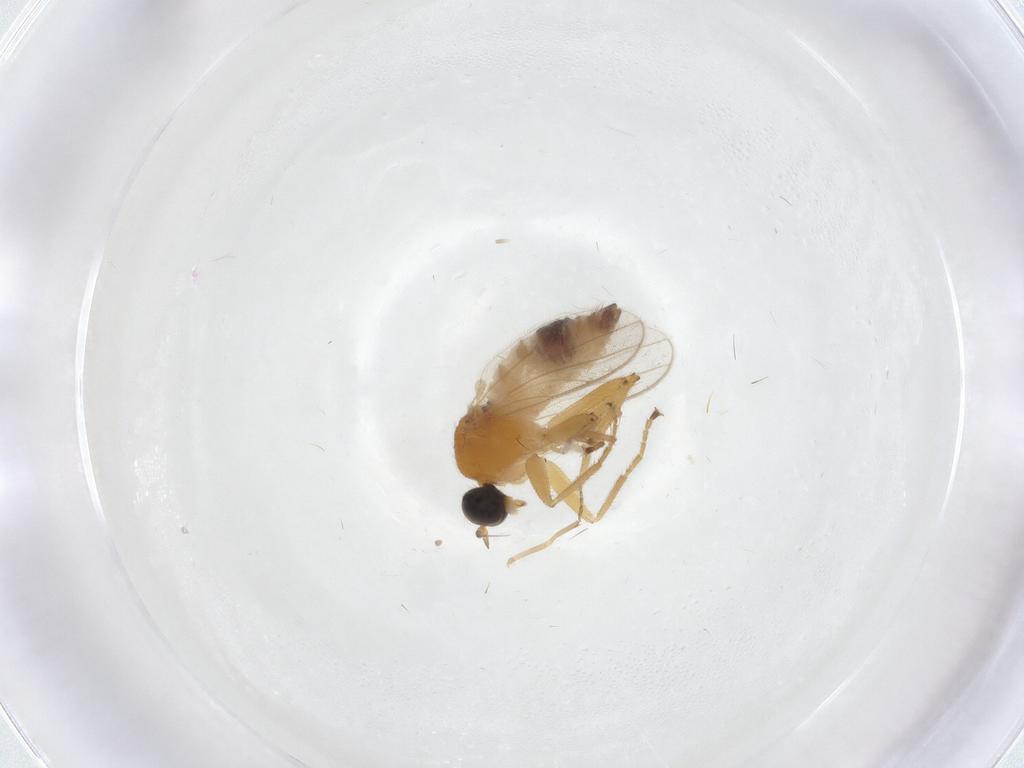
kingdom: Animalia
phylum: Arthropoda
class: Insecta
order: Diptera
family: Hybotidae
